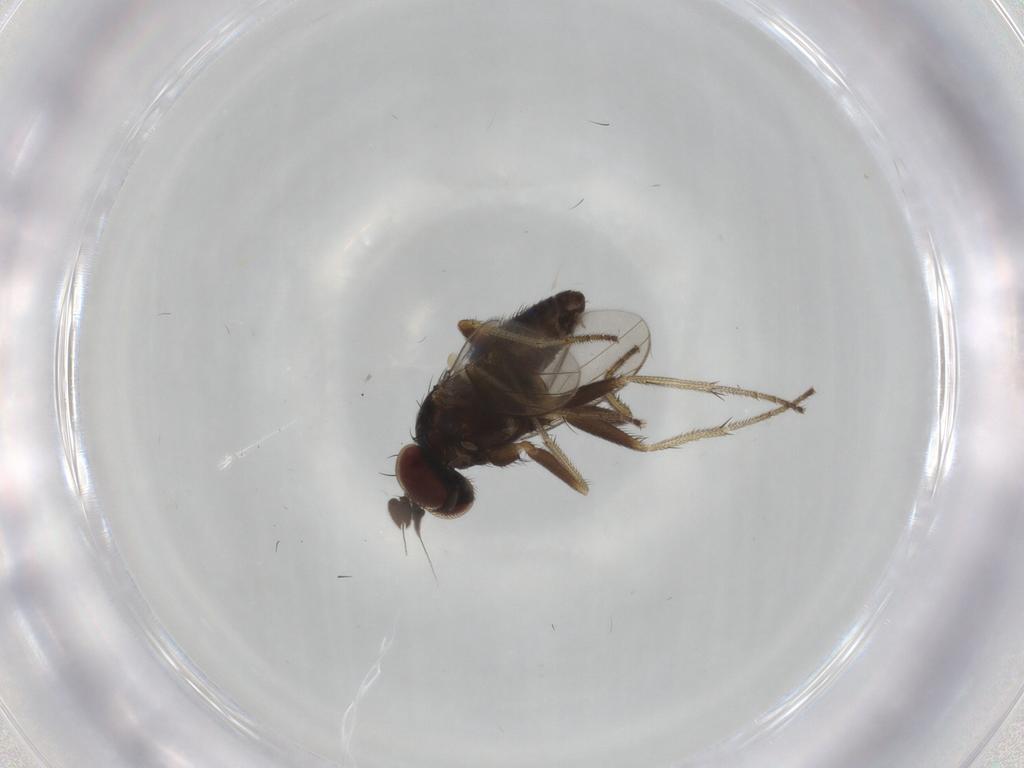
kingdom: Animalia
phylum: Arthropoda
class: Insecta
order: Diptera
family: Dolichopodidae
